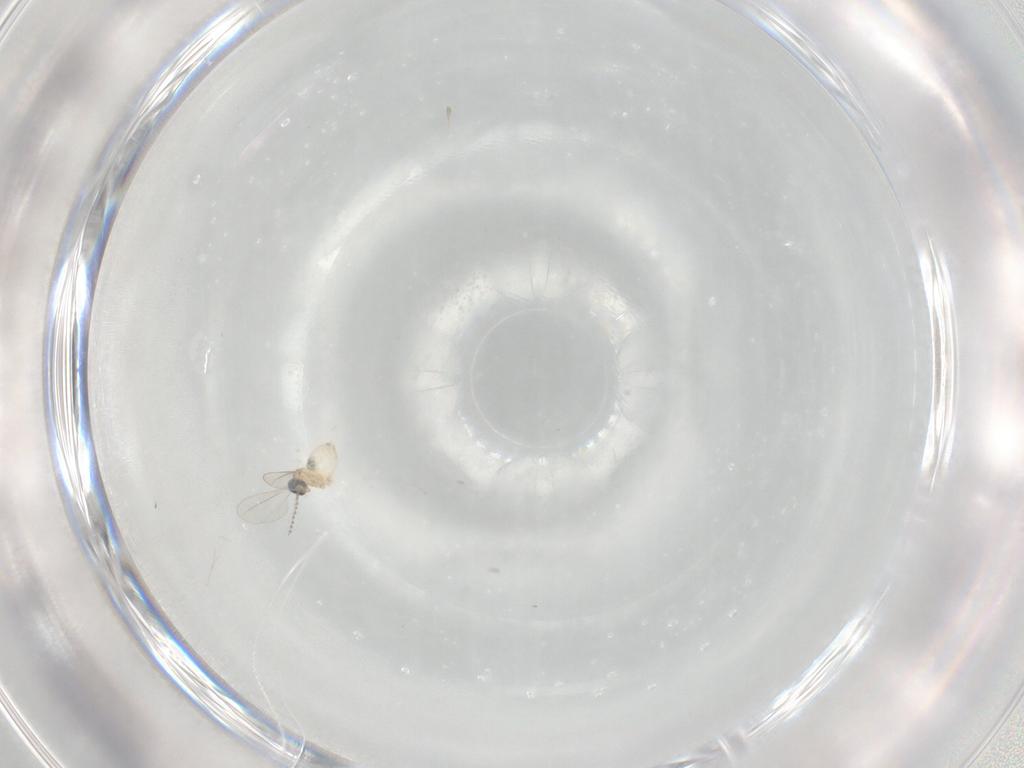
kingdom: Animalia
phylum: Arthropoda
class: Insecta
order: Diptera
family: Cecidomyiidae
